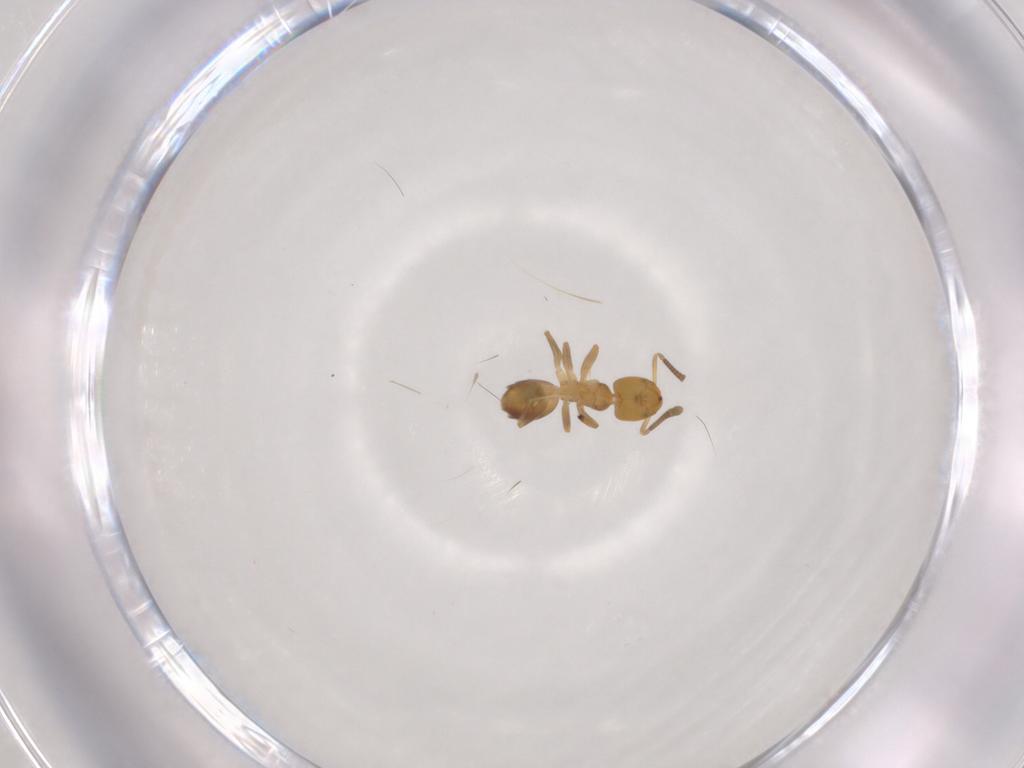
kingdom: Animalia
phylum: Arthropoda
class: Insecta
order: Hymenoptera
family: Formicidae
